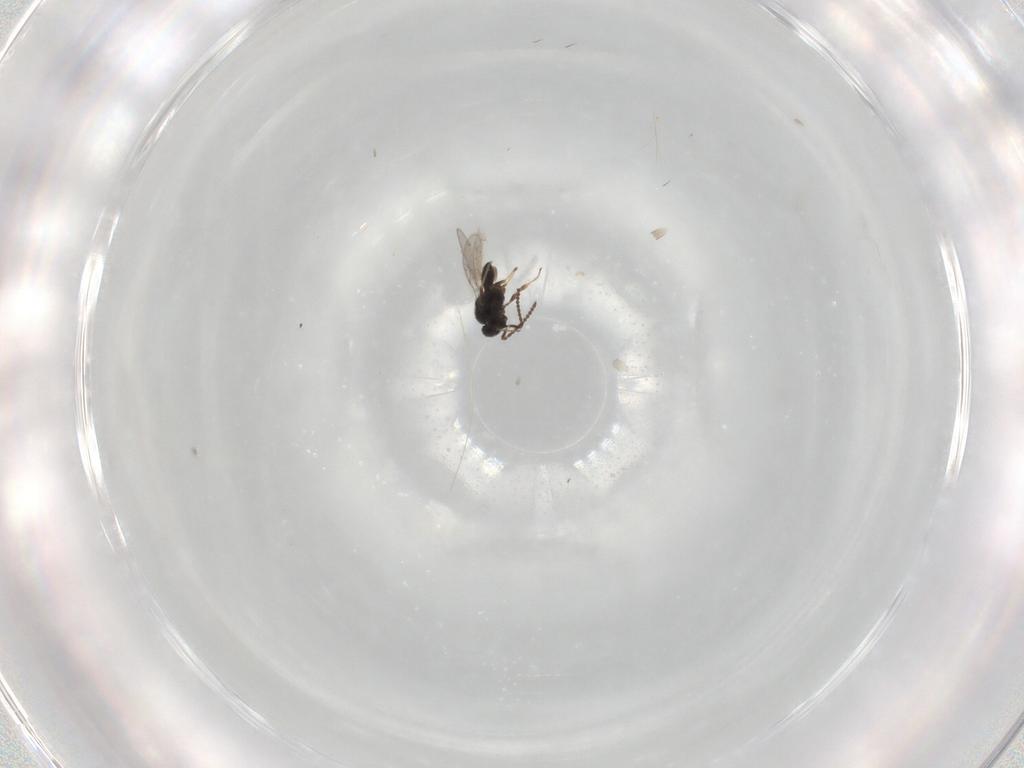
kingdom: Animalia
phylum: Arthropoda
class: Insecta
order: Hymenoptera
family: Scelionidae
